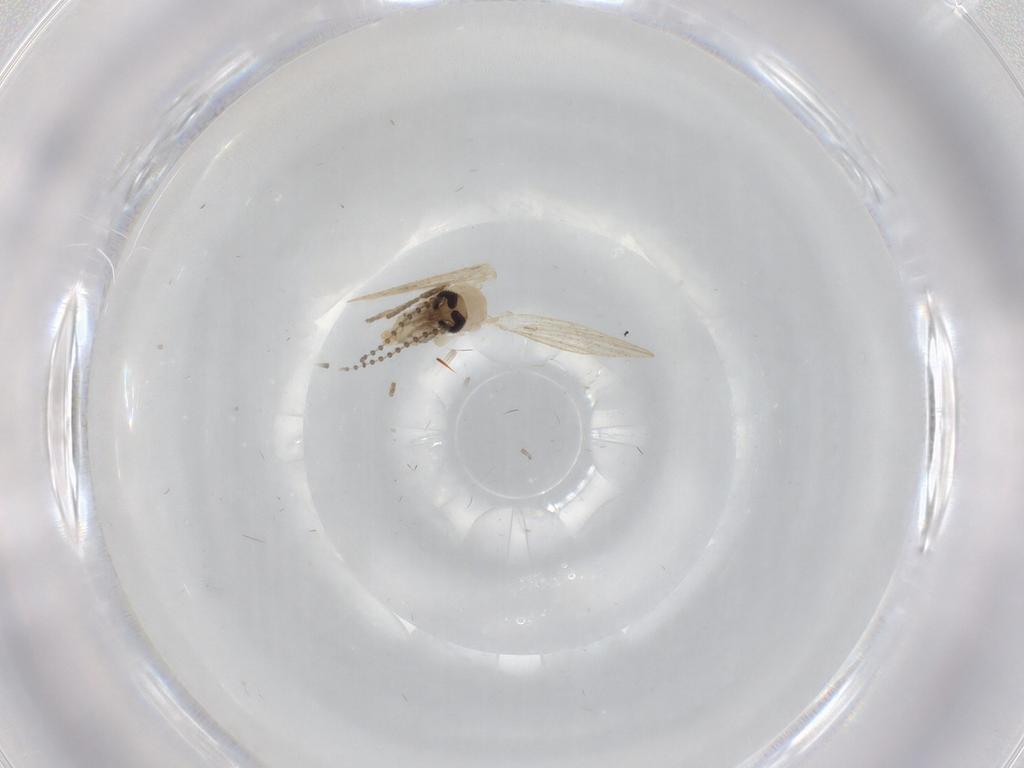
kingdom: Animalia
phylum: Arthropoda
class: Insecta
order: Diptera
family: Psychodidae
